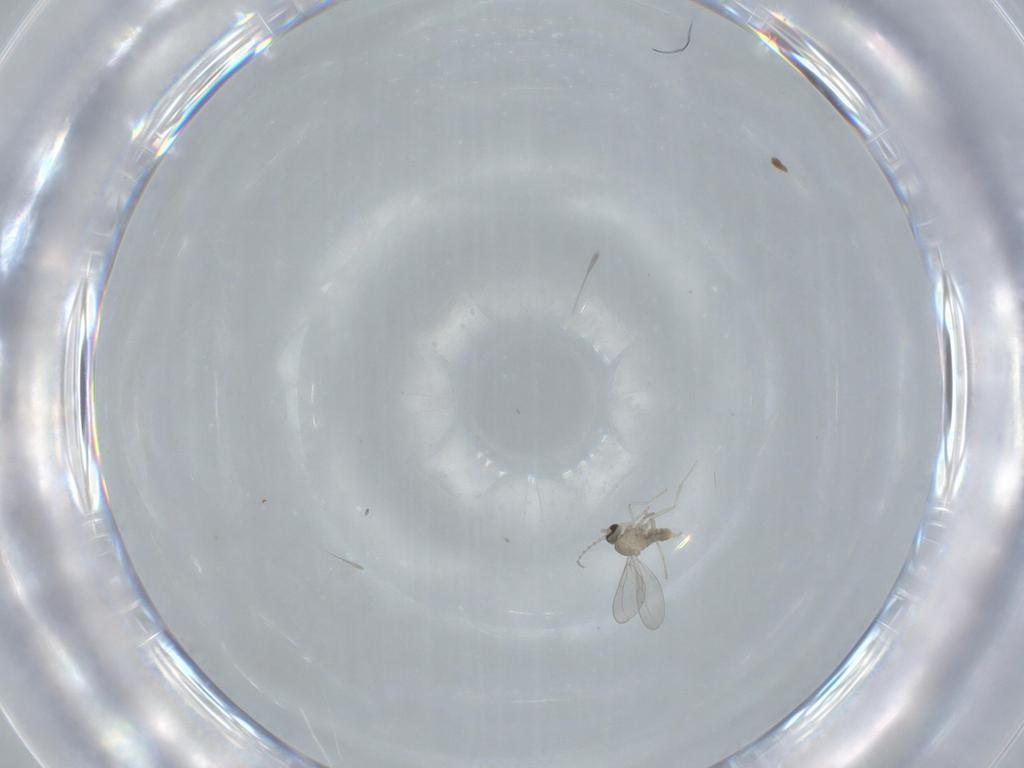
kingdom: Animalia
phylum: Arthropoda
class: Insecta
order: Diptera
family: Cecidomyiidae
